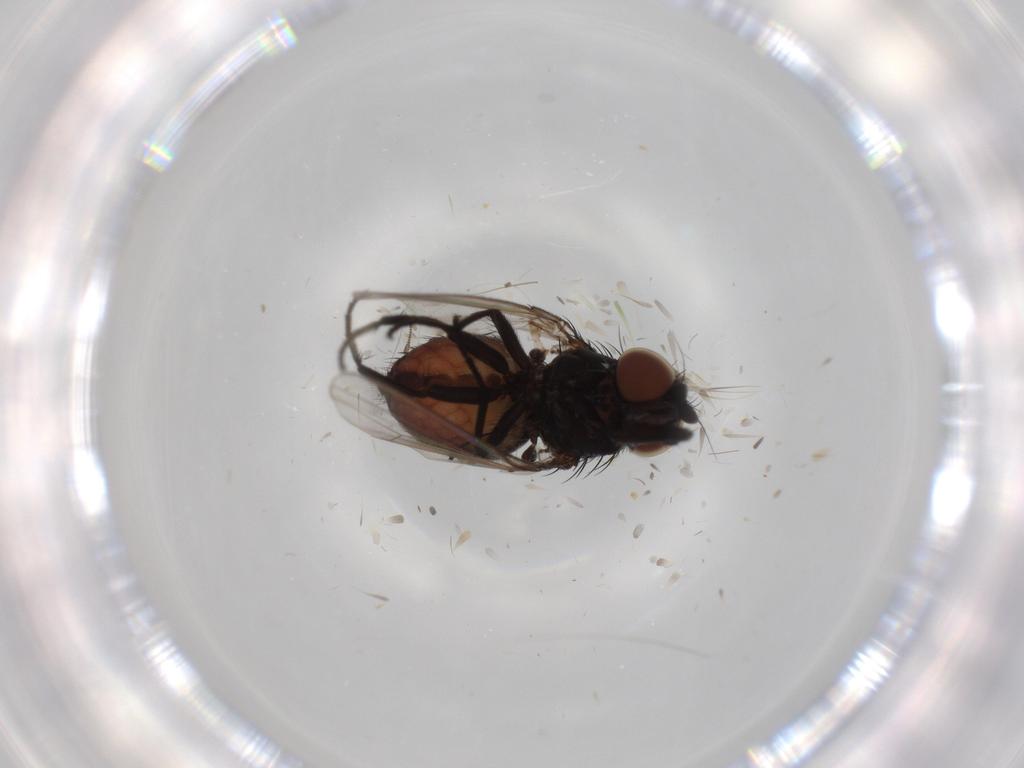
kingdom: Animalia
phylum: Arthropoda
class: Insecta
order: Diptera
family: Milichiidae
